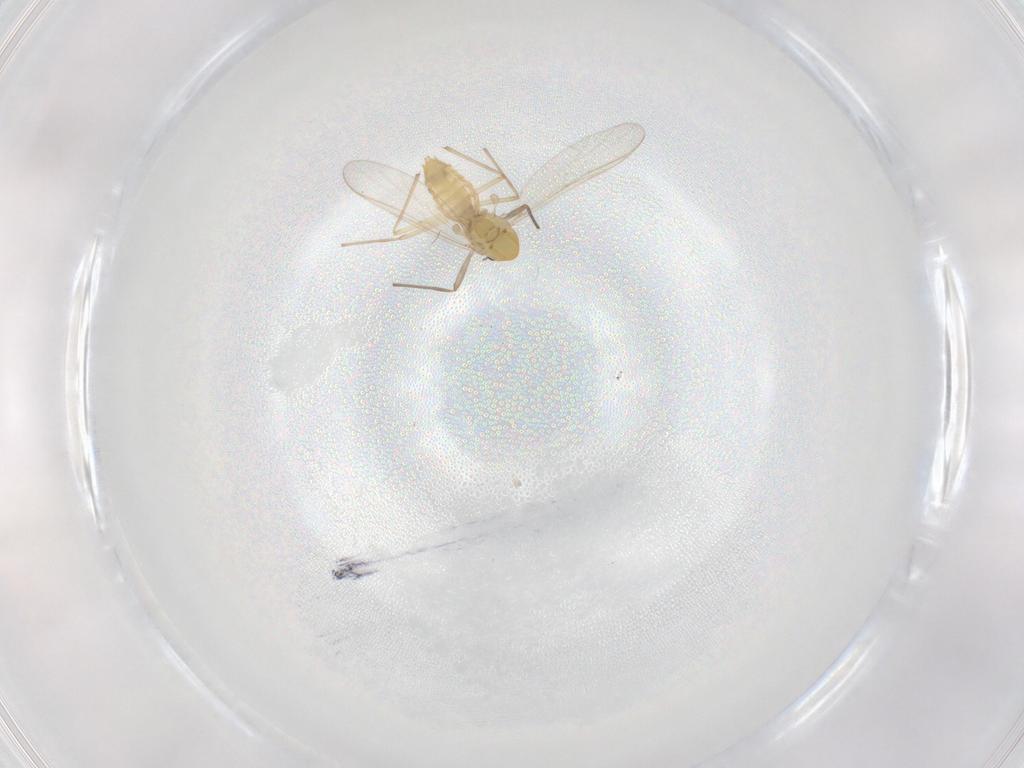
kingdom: Animalia
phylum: Arthropoda
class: Insecta
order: Diptera
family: Chironomidae
